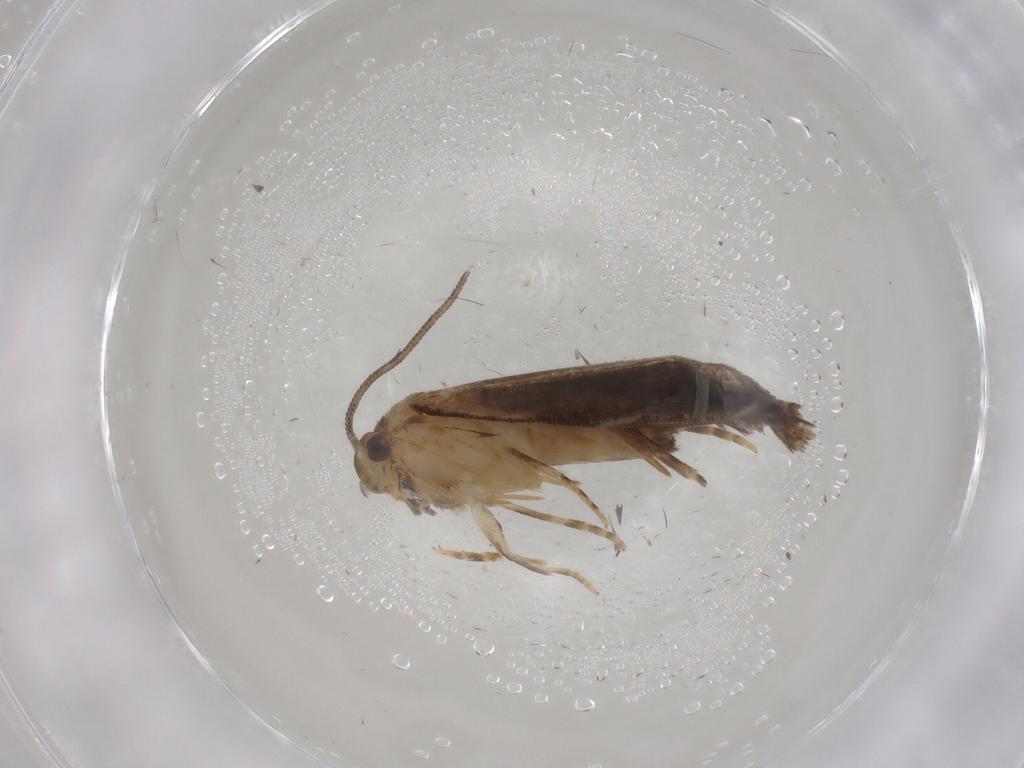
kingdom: Animalia
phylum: Arthropoda
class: Insecta
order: Lepidoptera
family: Dryadaulidae
